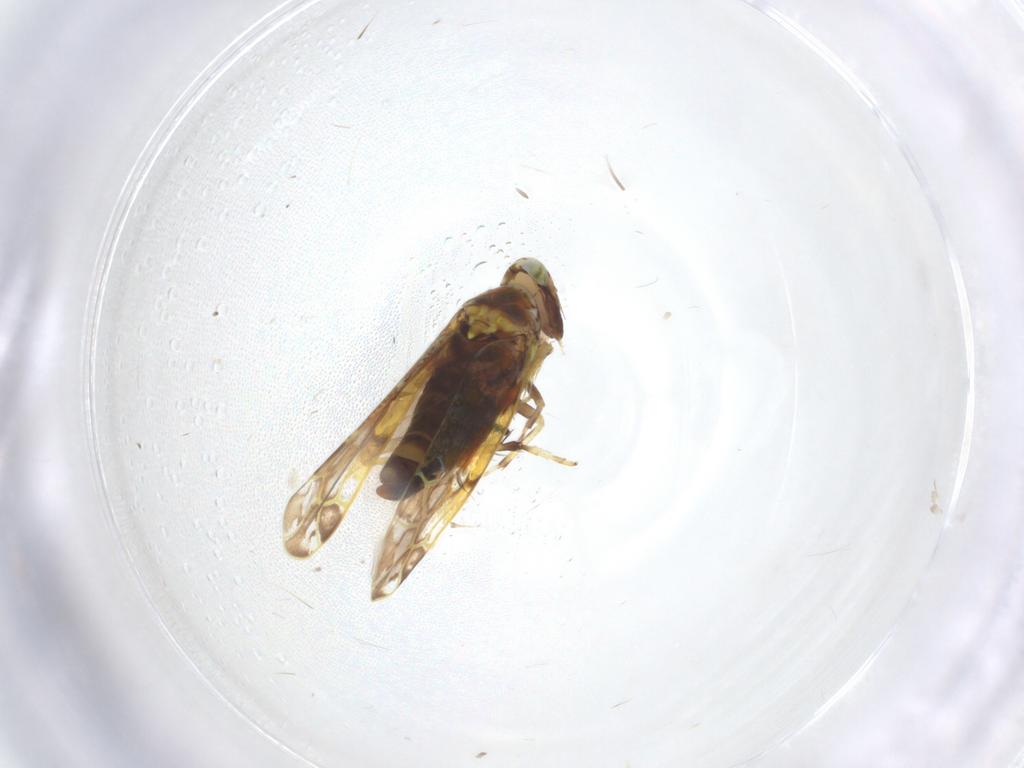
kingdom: Animalia
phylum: Arthropoda
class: Insecta
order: Hemiptera
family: Cicadellidae
